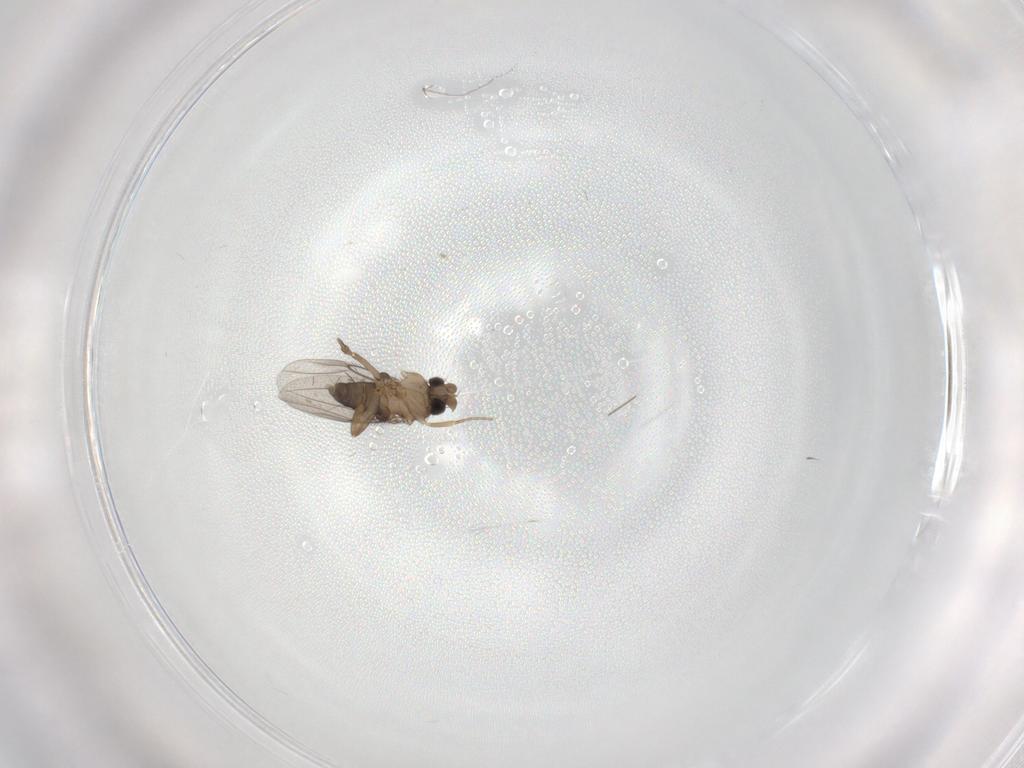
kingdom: Animalia
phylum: Arthropoda
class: Insecta
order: Diptera
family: Phoridae
